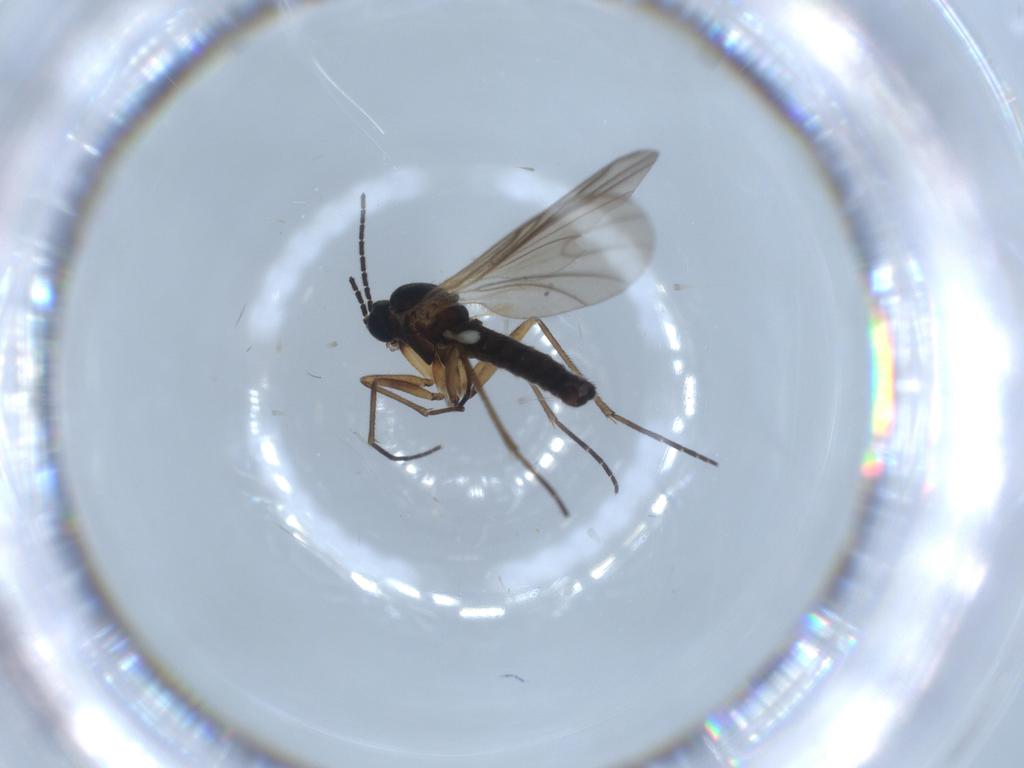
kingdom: Animalia
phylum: Arthropoda
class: Insecta
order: Diptera
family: Sciaridae
